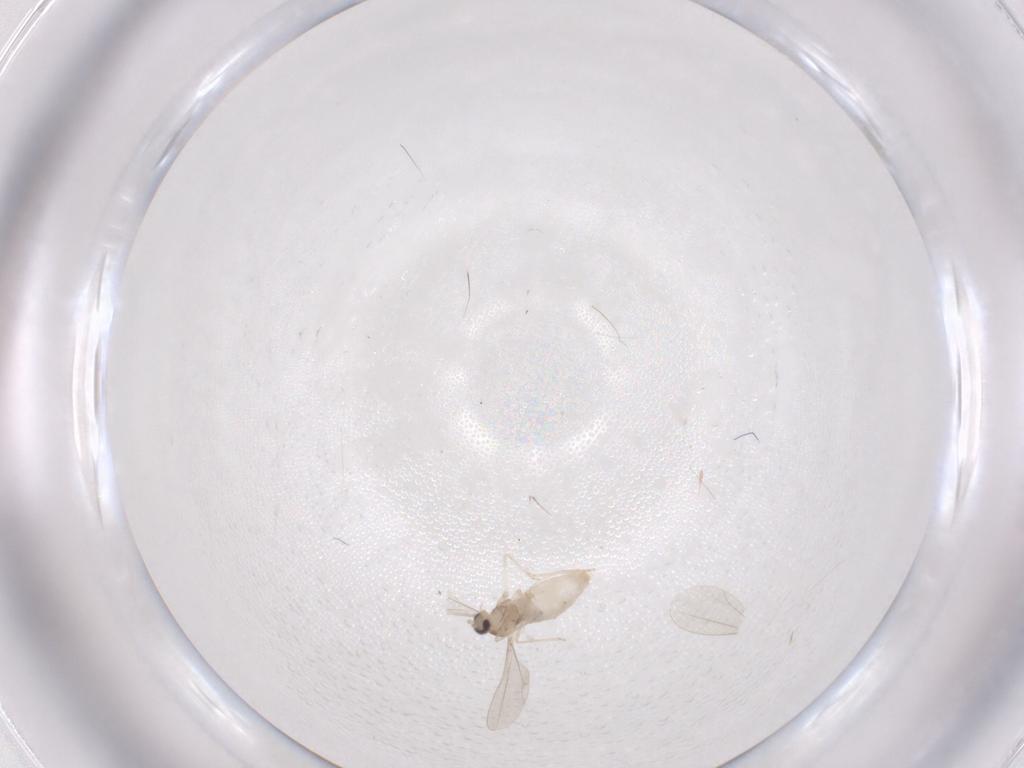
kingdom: Animalia
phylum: Arthropoda
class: Insecta
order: Diptera
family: Cecidomyiidae
